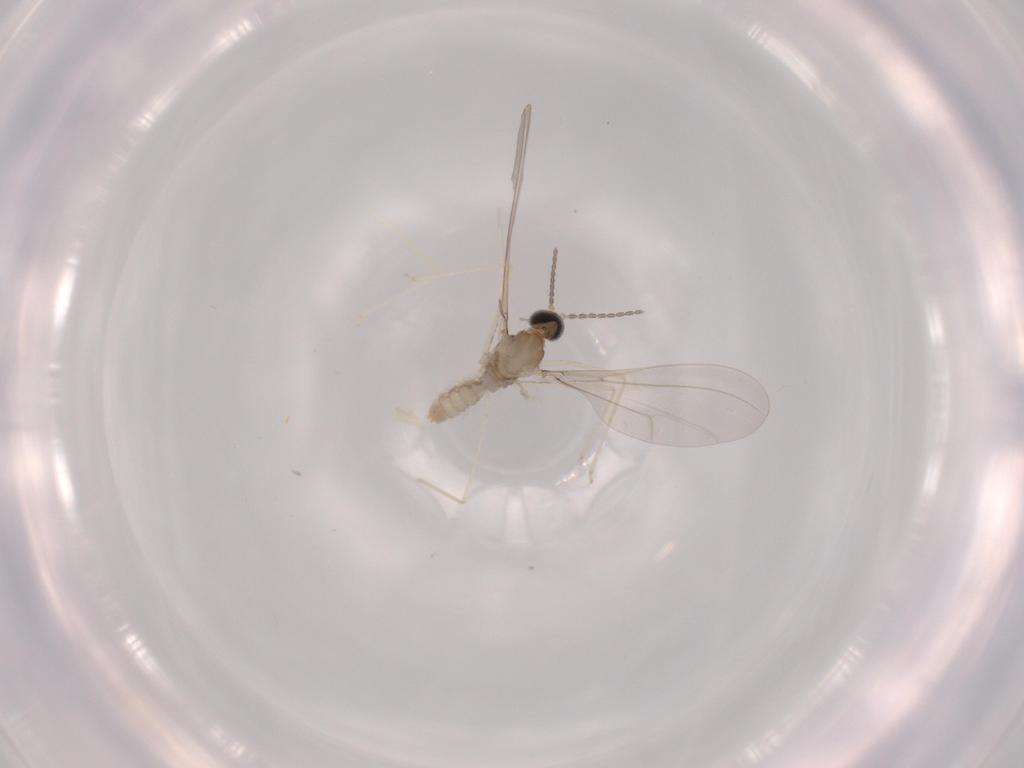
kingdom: Animalia
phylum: Arthropoda
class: Insecta
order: Diptera
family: Cecidomyiidae
